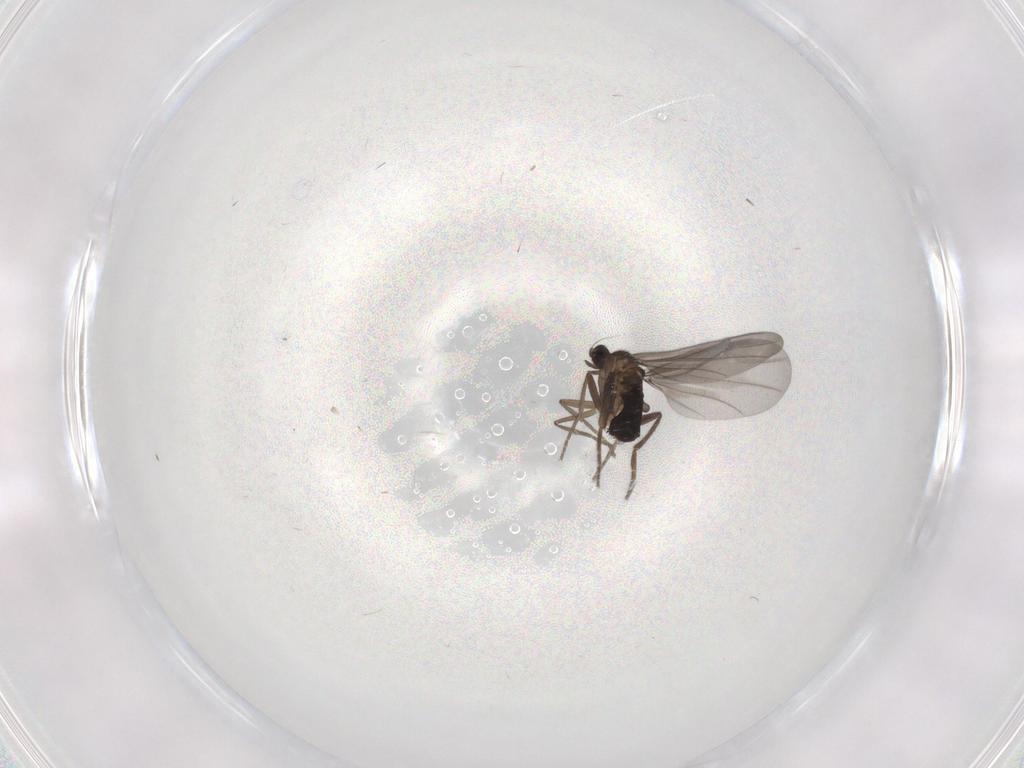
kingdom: Animalia
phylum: Arthropoda
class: Insecta
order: Diptera
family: Phoridae
